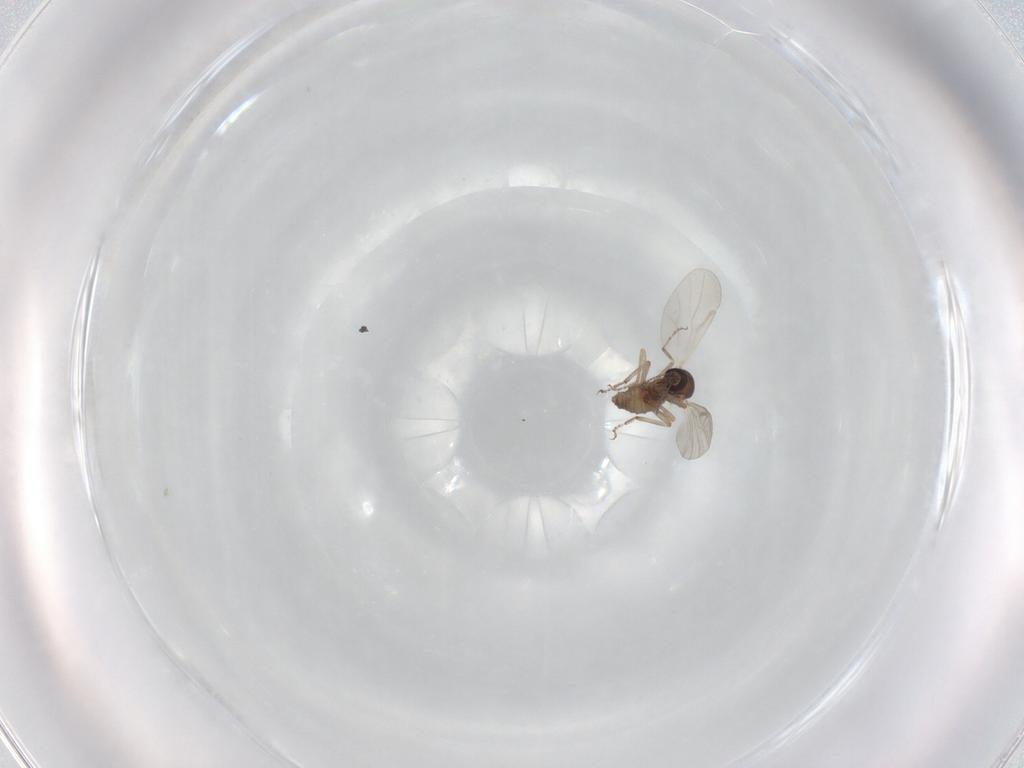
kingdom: Animalia
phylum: Arthropoda
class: Insecta
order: Diptera
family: Ceratopogonidae
